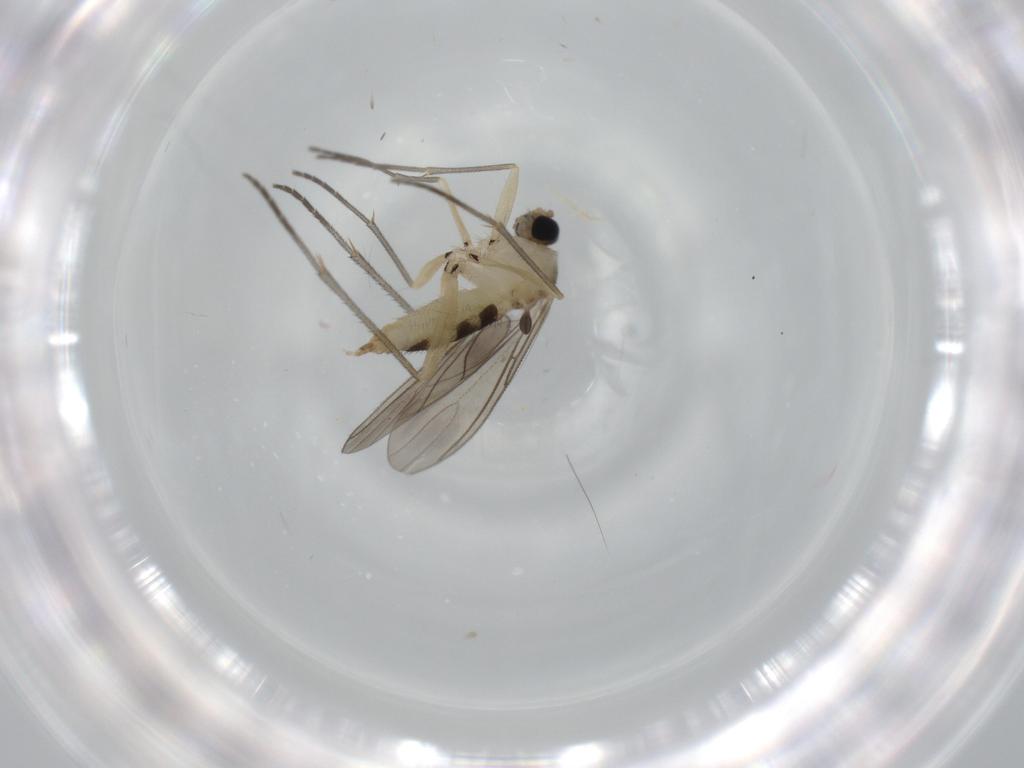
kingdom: Animalia
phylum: Arthropoda
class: Insecta
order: Diptera
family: Sciaridae
